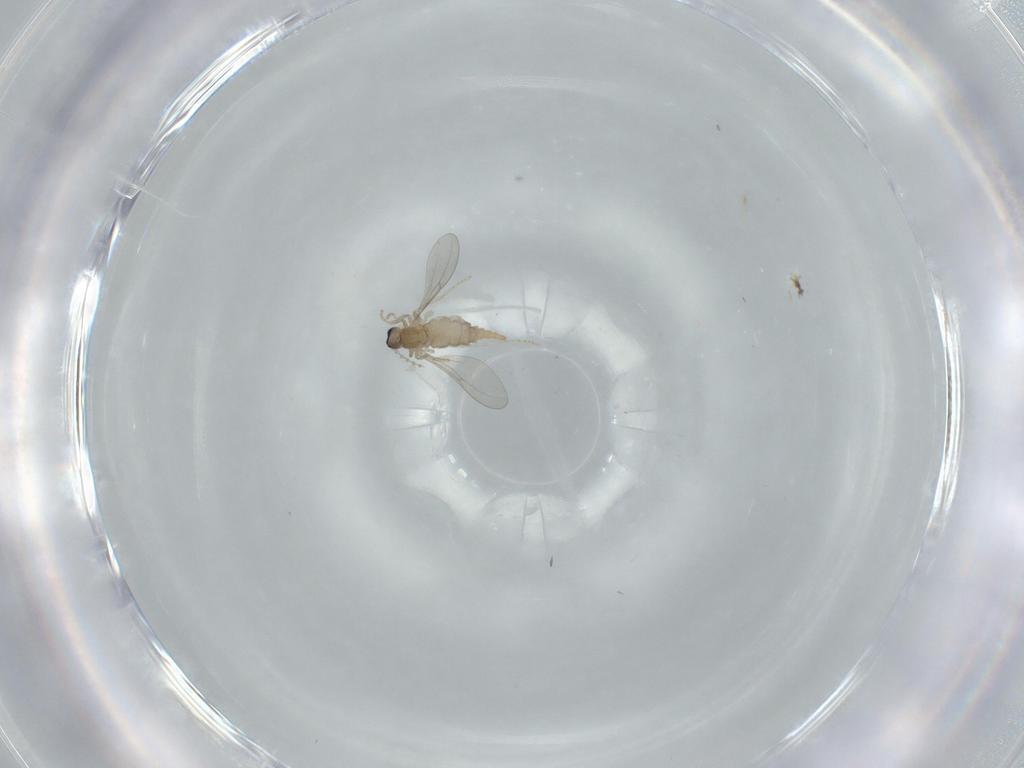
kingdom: Animalia
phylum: Arthropoda
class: Insecta
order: Diptera
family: Cecidomyiidae
